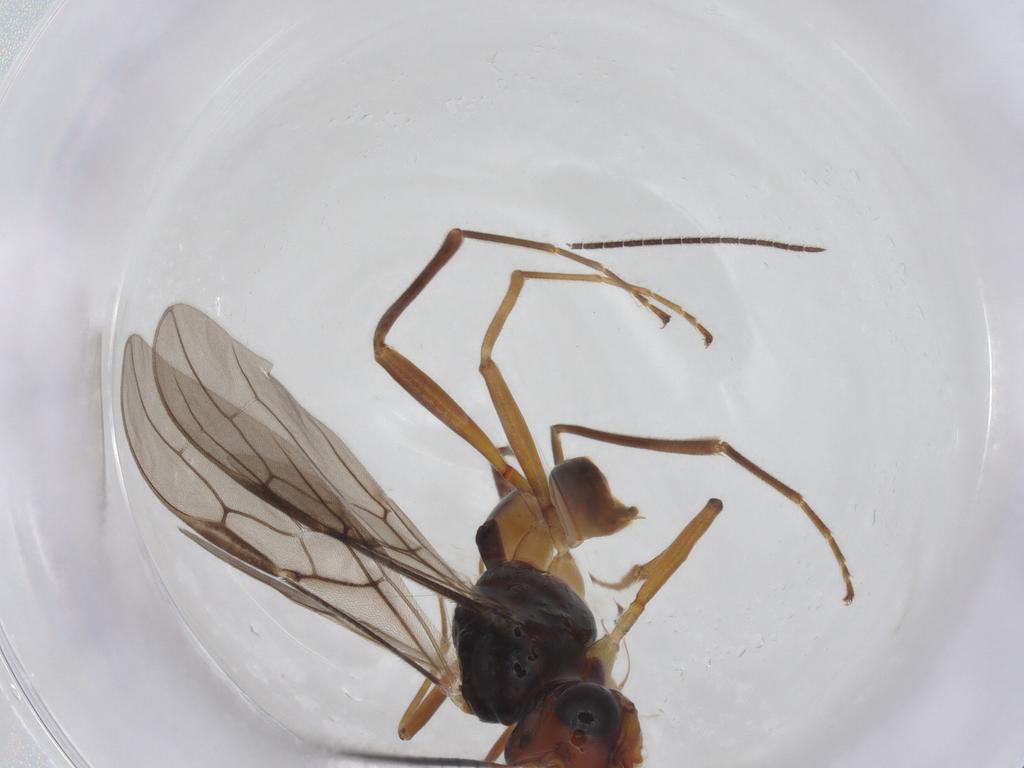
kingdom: Animalia
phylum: Arthropoda
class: Insecta
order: Hymenoptera
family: Braconidae
